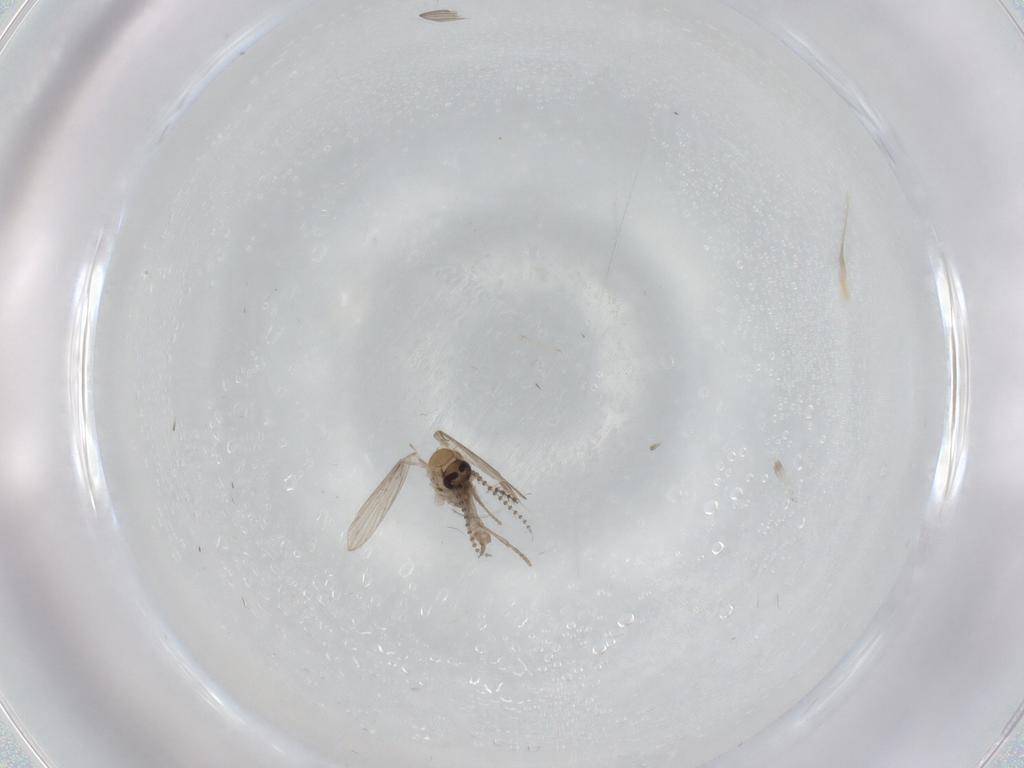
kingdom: Animalia
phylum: Arthropoda
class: Insecta
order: Diptera
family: Psychodidae
